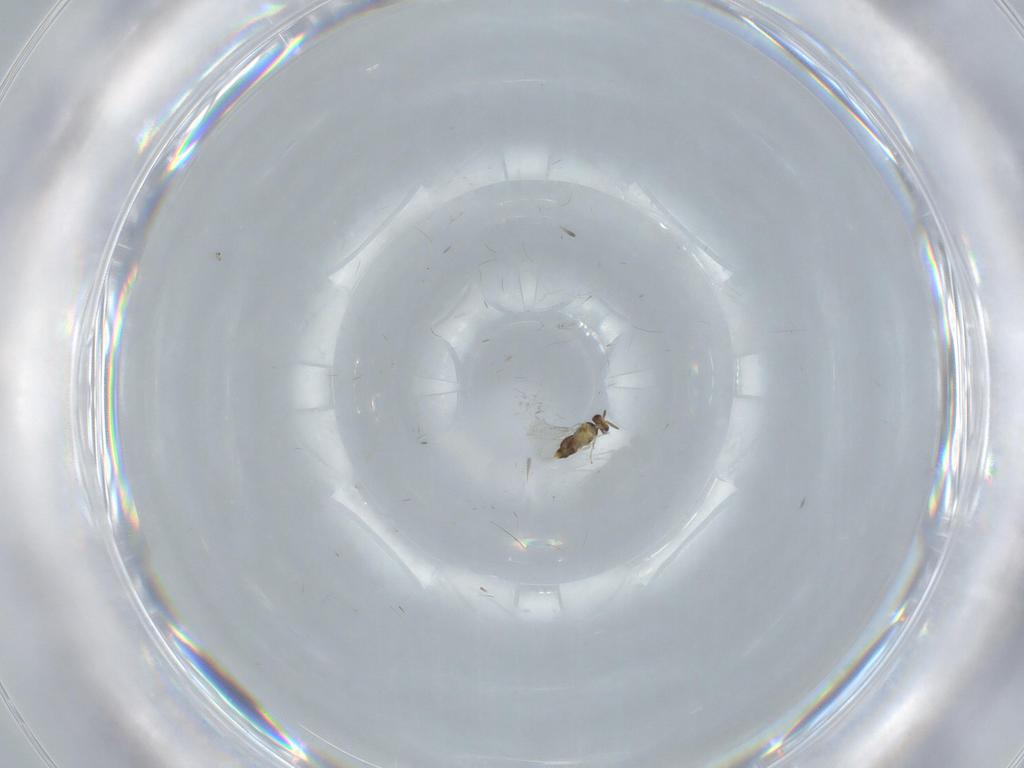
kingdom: Animalia
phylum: Arthropoda
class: Insecta
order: Hymenoptera
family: Aphelinidae
